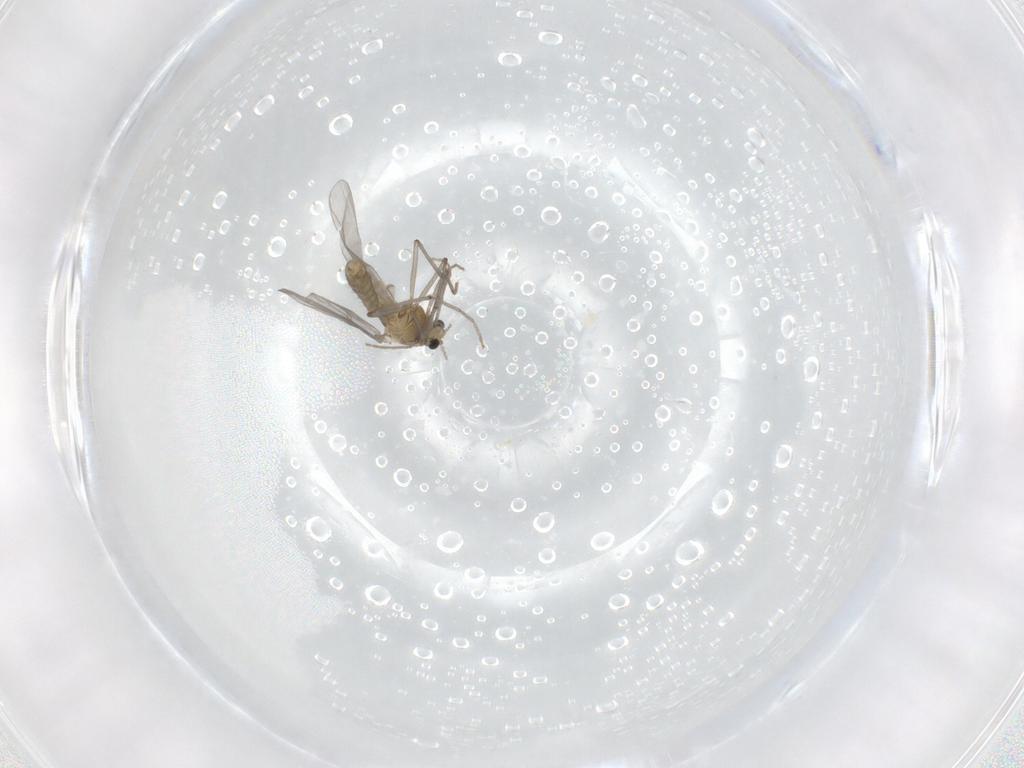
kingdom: Animalia
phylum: Arthropoda
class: Insecta
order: Diptera
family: Chironomidae
